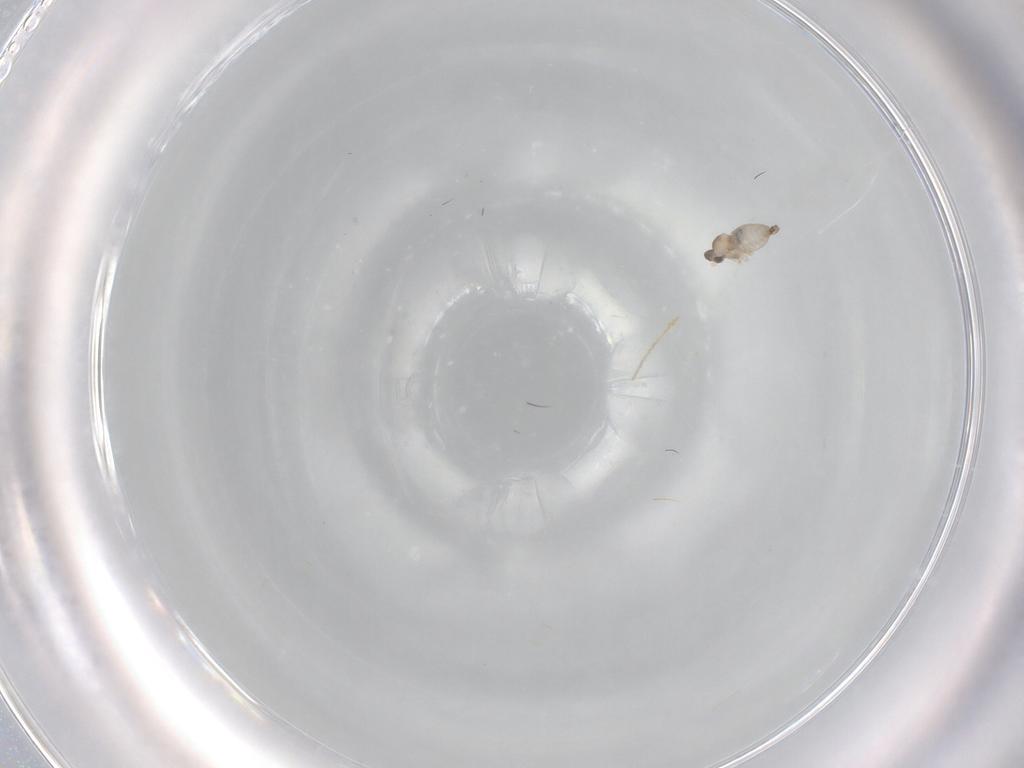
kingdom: Animalia
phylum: Arthropoda
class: Insecta
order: Diptera
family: Cecidomyiidae
